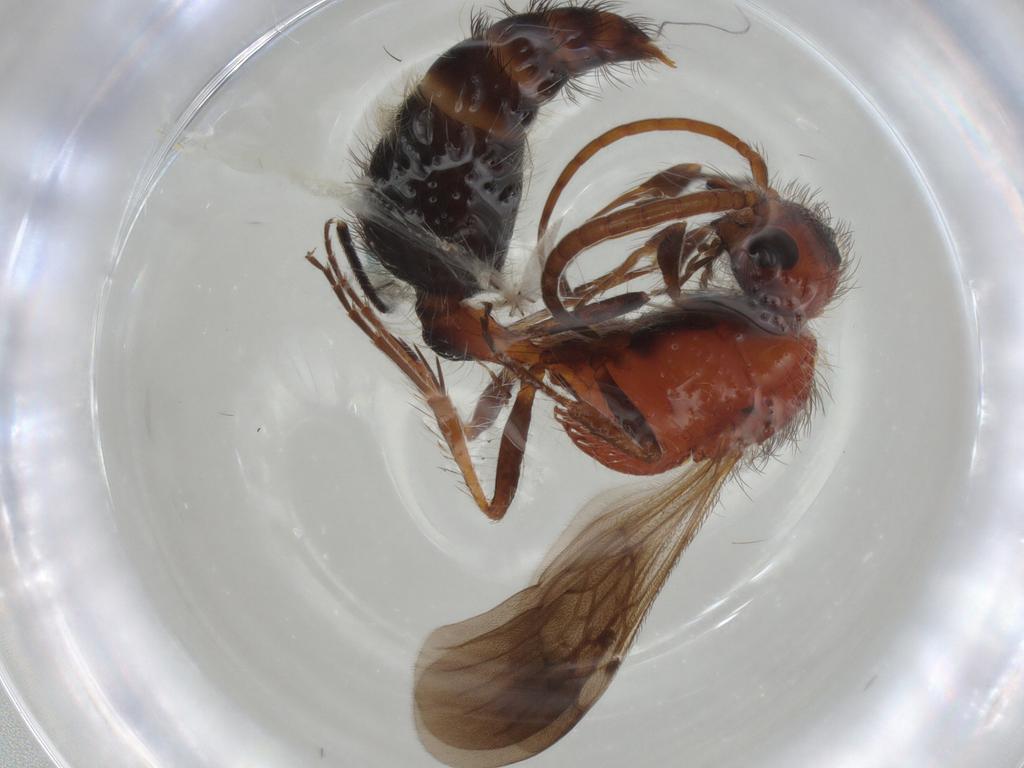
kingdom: Animalia
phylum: Arthropoda
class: Insecta
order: Hymenoptera
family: Mutillidae
